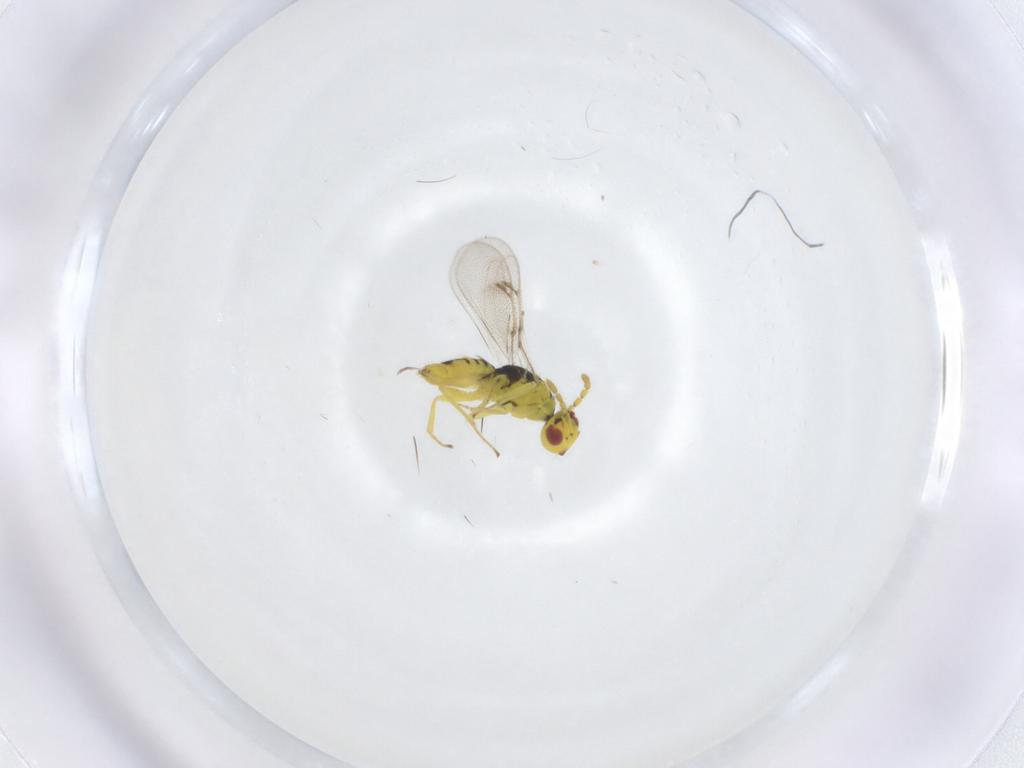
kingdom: Animalia
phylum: Arthropoda
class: Insecta
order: Hymenoptera
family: Eulophidae
